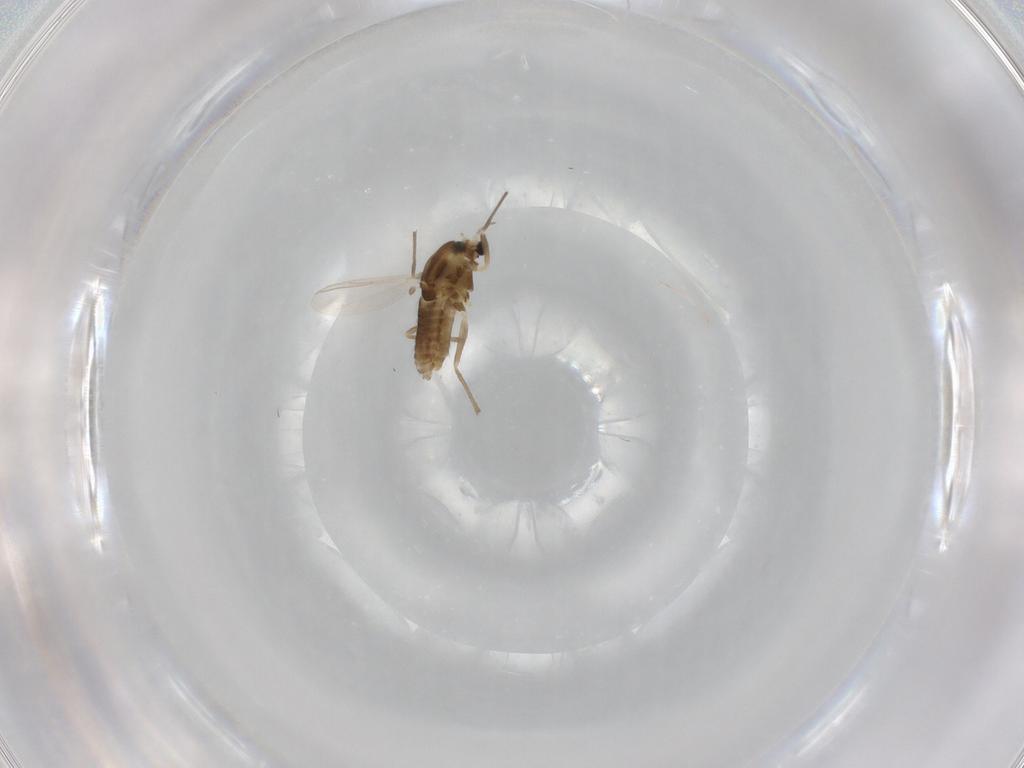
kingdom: Animalia
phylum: Arthropoda
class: Insecta
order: Diptera
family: Chironomidae
